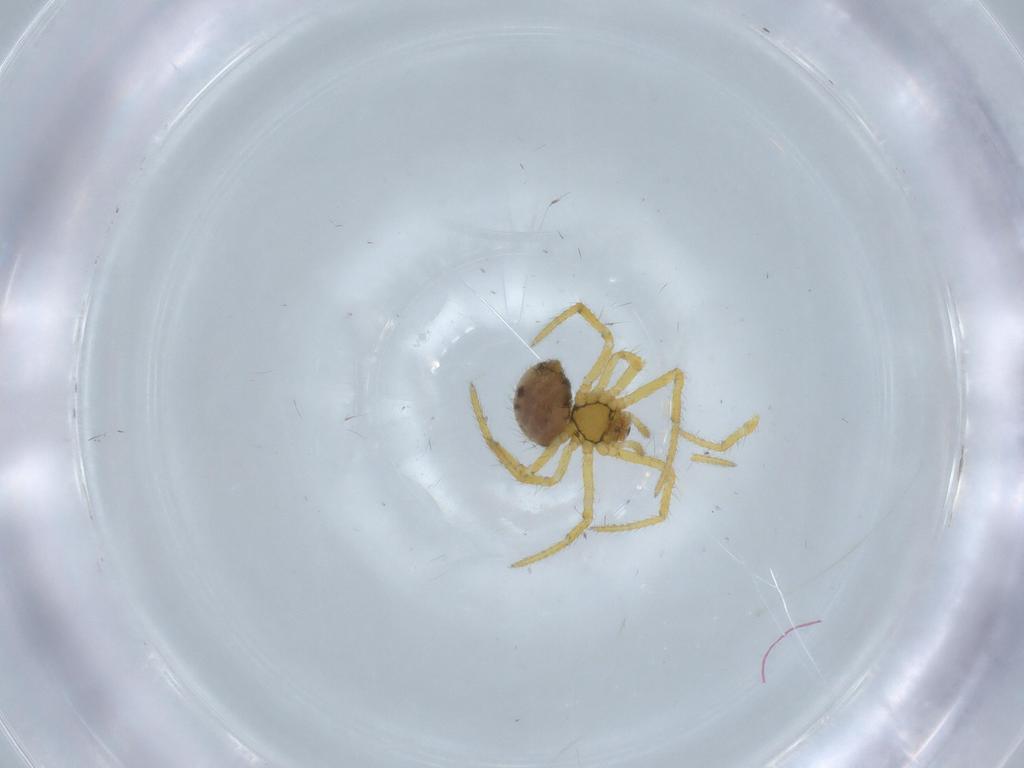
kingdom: Animalia
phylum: Arthropoda
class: Arachnida
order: Araneae
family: Theridiidae
